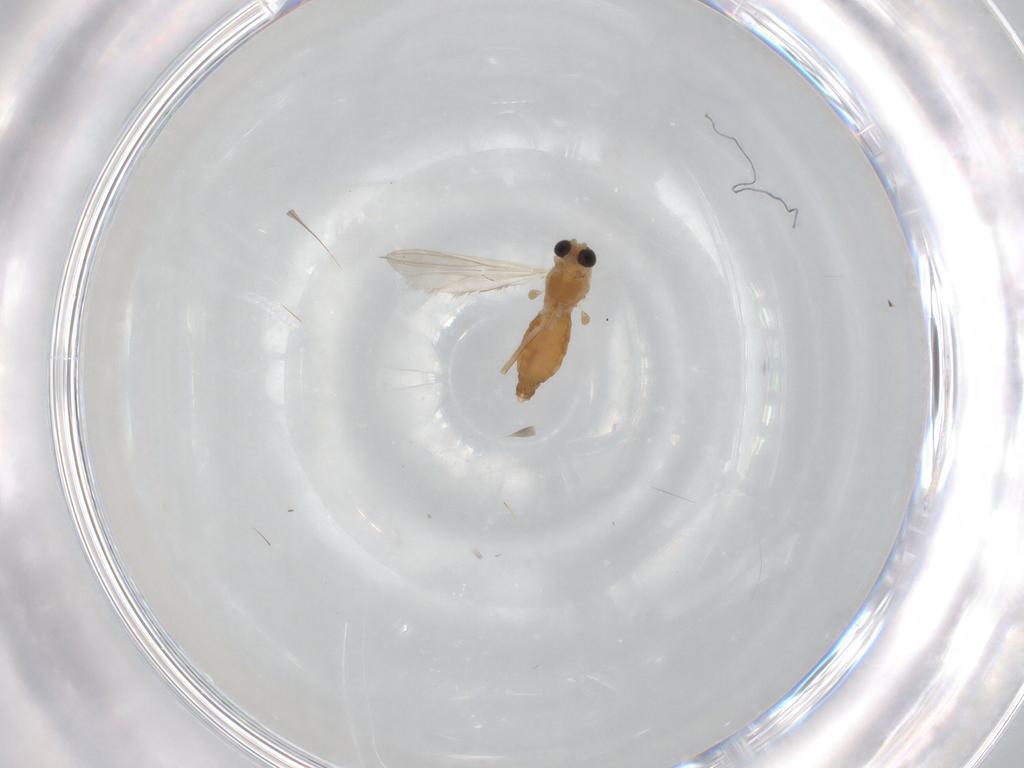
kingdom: Animalia
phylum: Arthropoda
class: Insecta
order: Diptera
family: Chironomidae
